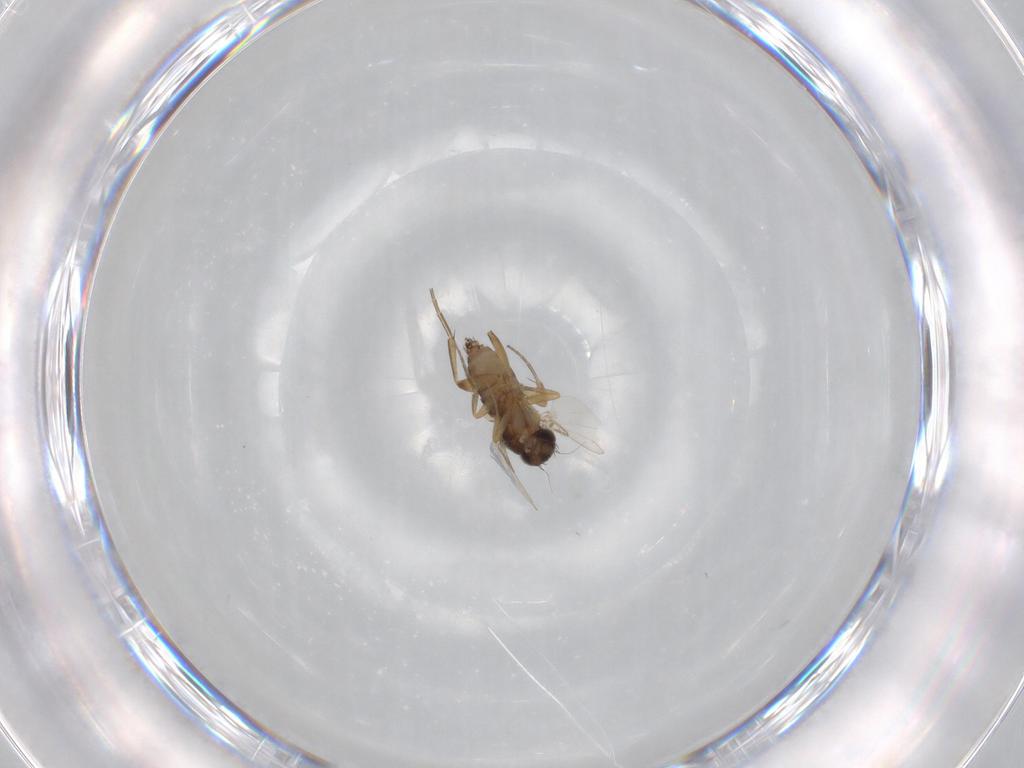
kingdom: Animalia
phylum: Arthropoda
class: Insecta
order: Diptera
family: Phoridae
